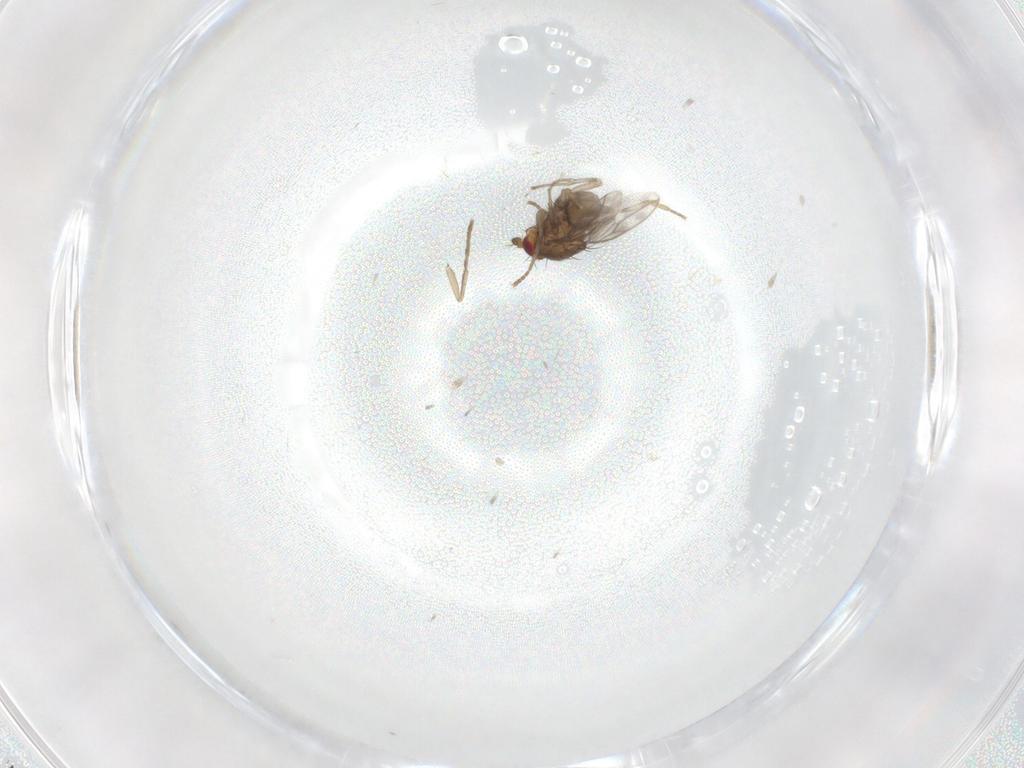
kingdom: Animalia
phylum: Arthropoda
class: Insecta
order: Diptera
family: Sphaeroceridae
